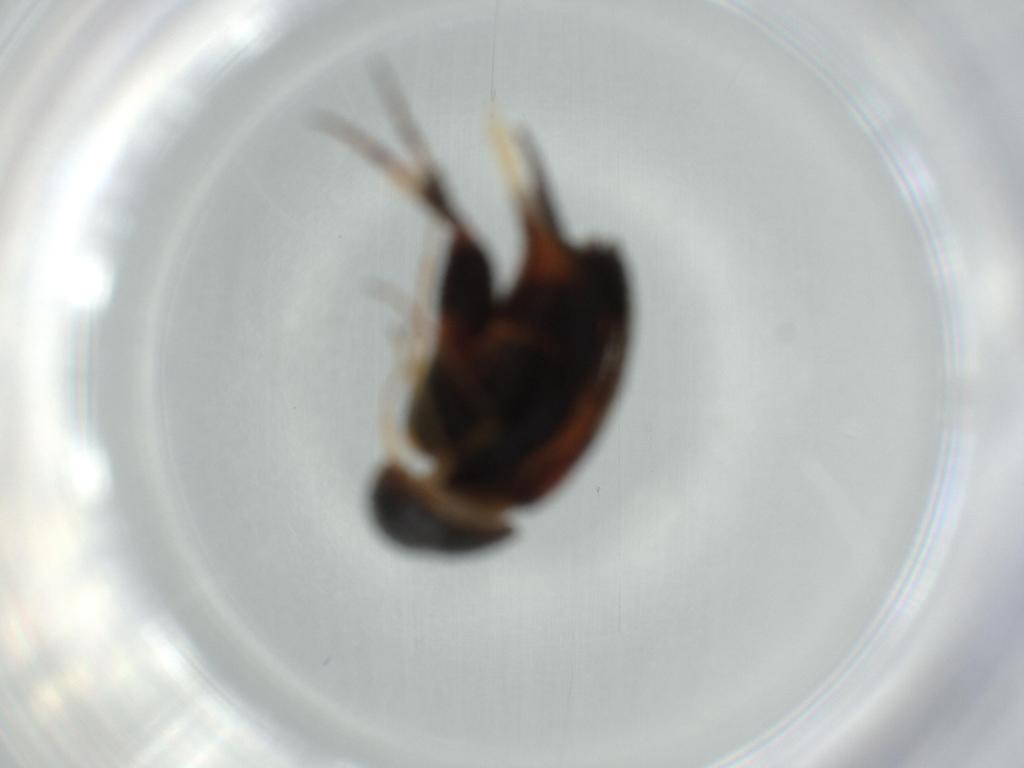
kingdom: Animalia
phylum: Arthropoda
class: Insecta
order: Coleoptera
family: Mordellidae
